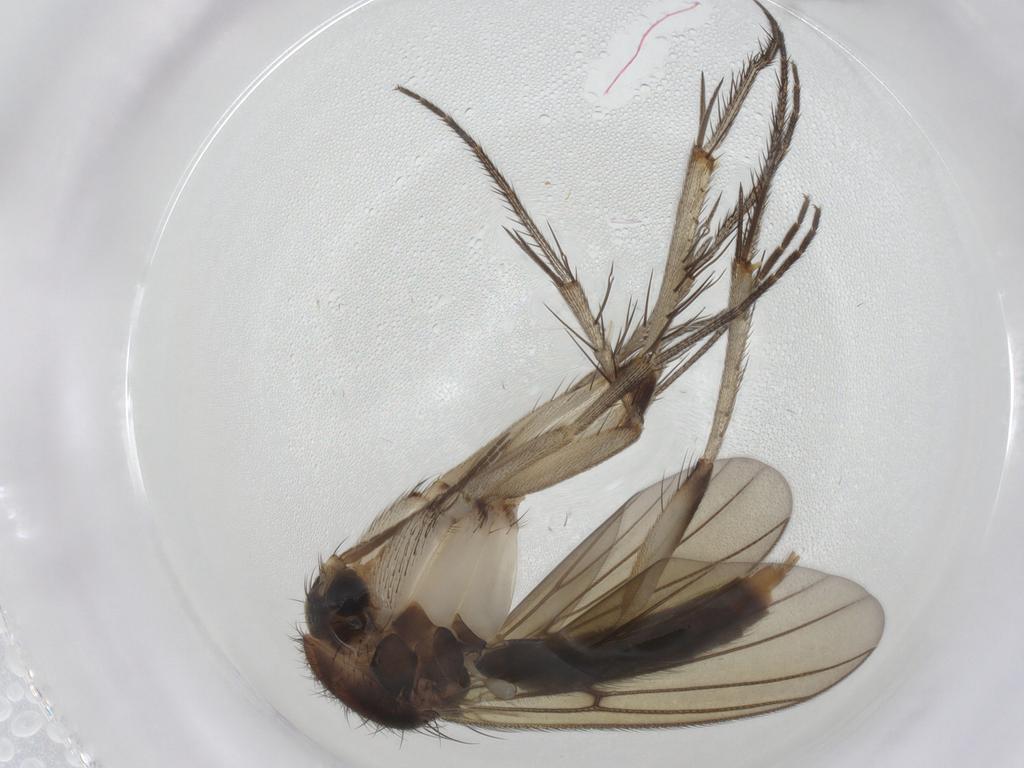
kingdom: Animalia
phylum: Arthropoda
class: Insecta
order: Diptera
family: Mycetophilidae
